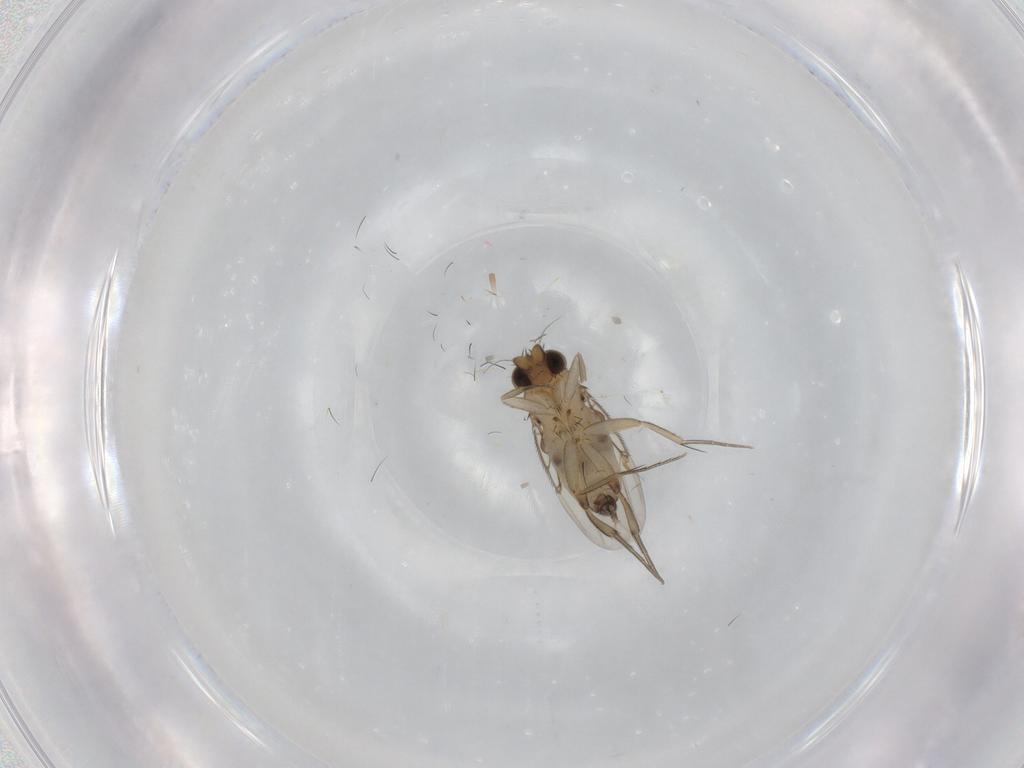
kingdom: Animalia
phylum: Arthropoda
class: Insecta
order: Diptera
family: Phoridae
